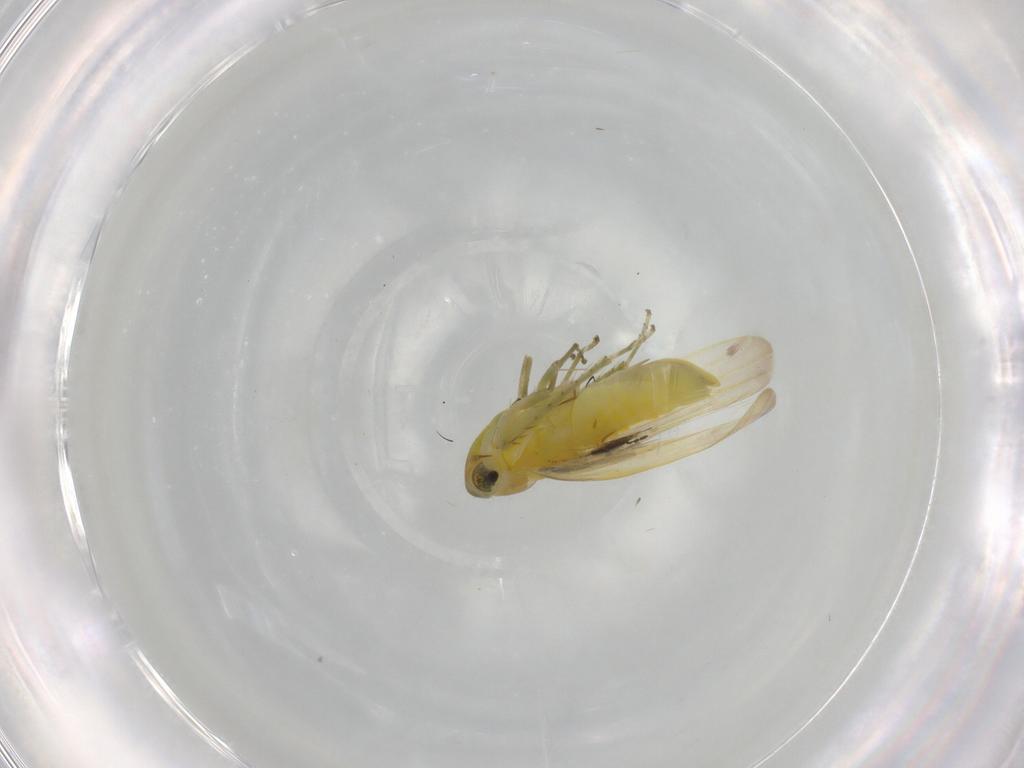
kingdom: Animalia
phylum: Arthropoda
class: Insecta
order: Hemiptera
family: Cicadellidae
